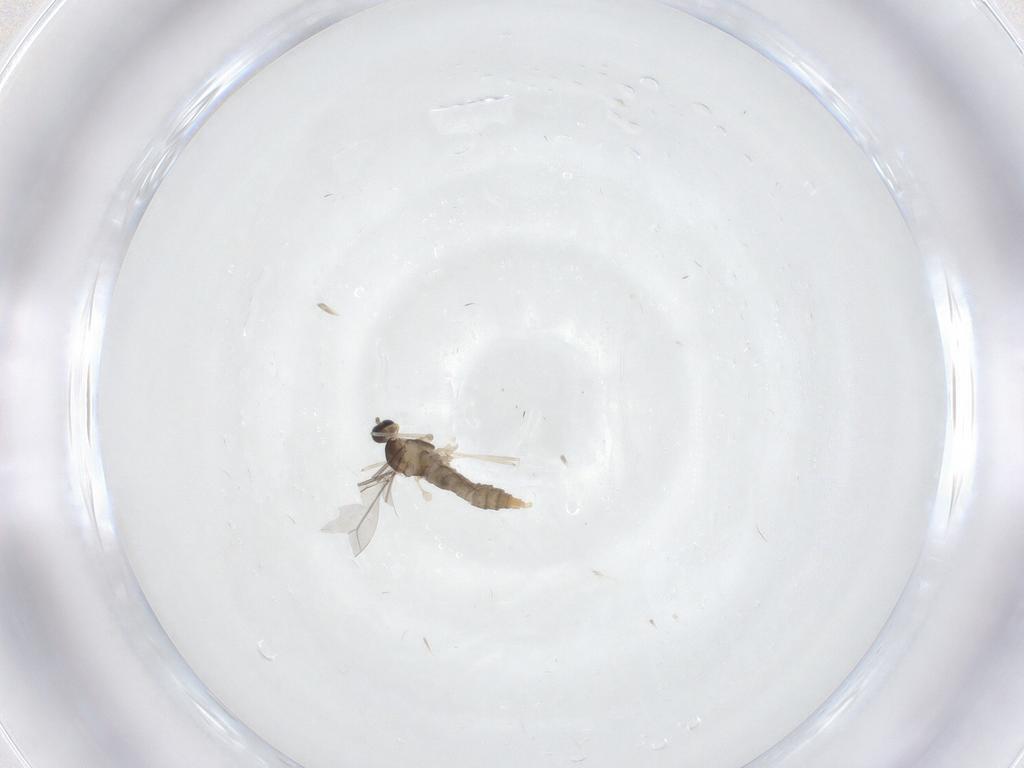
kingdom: Animalia
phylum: Arthropoda
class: Insecta
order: Diptera
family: Cecidomyiidae
